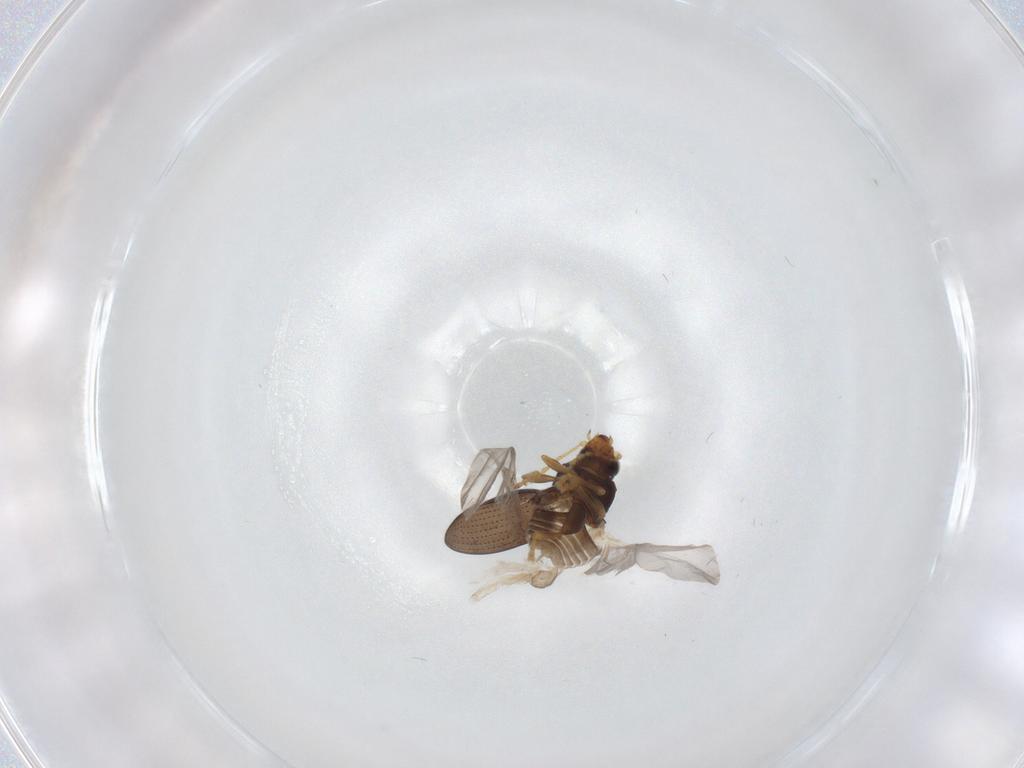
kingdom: Animalia
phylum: Arthropoda
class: Insecta
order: Coleoptera
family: Chrysomelidae
